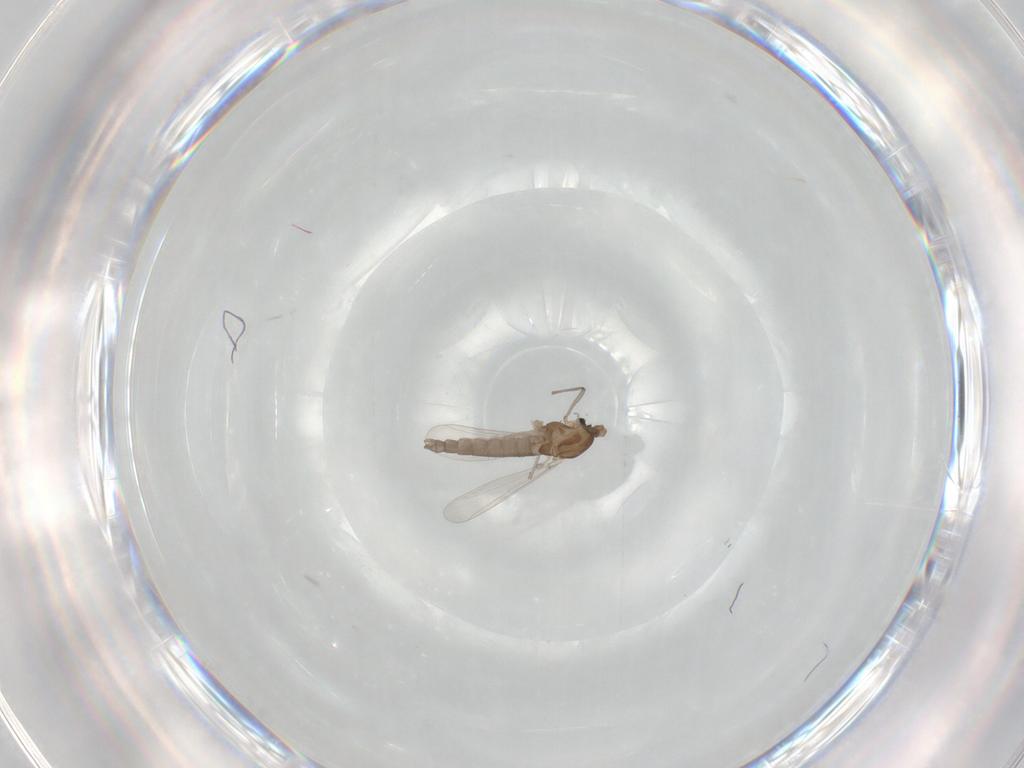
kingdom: Animalia
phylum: Arthropoda
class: Insecta
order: Diptera
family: Chironomidae
